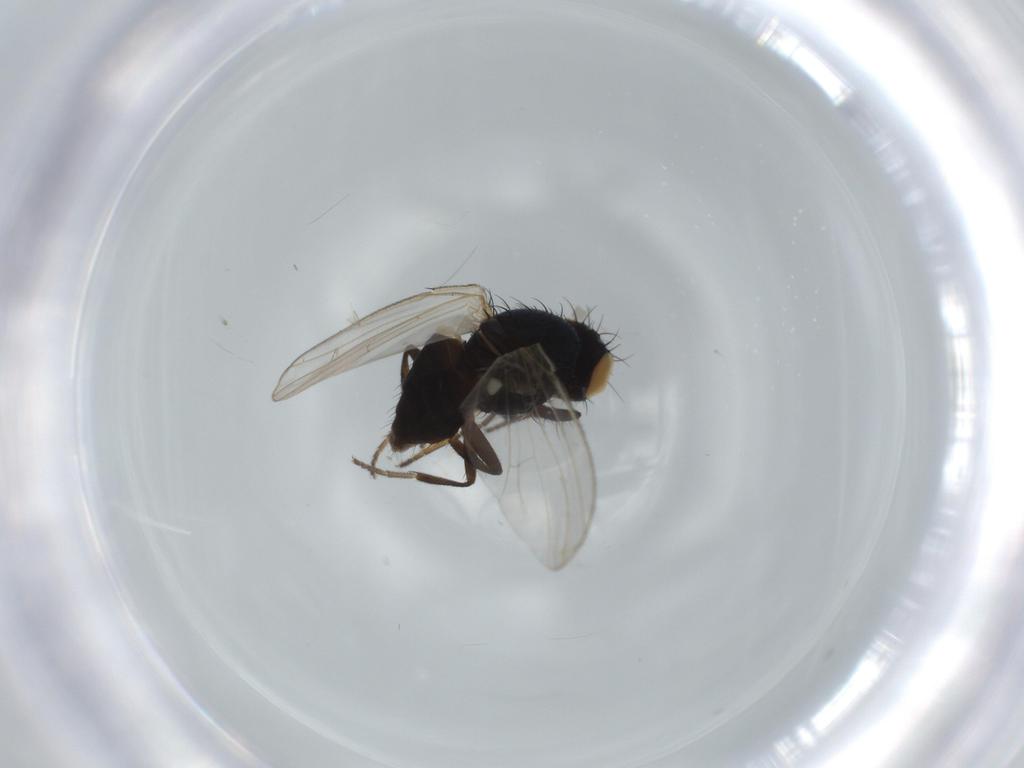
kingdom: Animalia
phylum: Arthropoda
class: Insecta
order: Diptera
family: Carnidae
